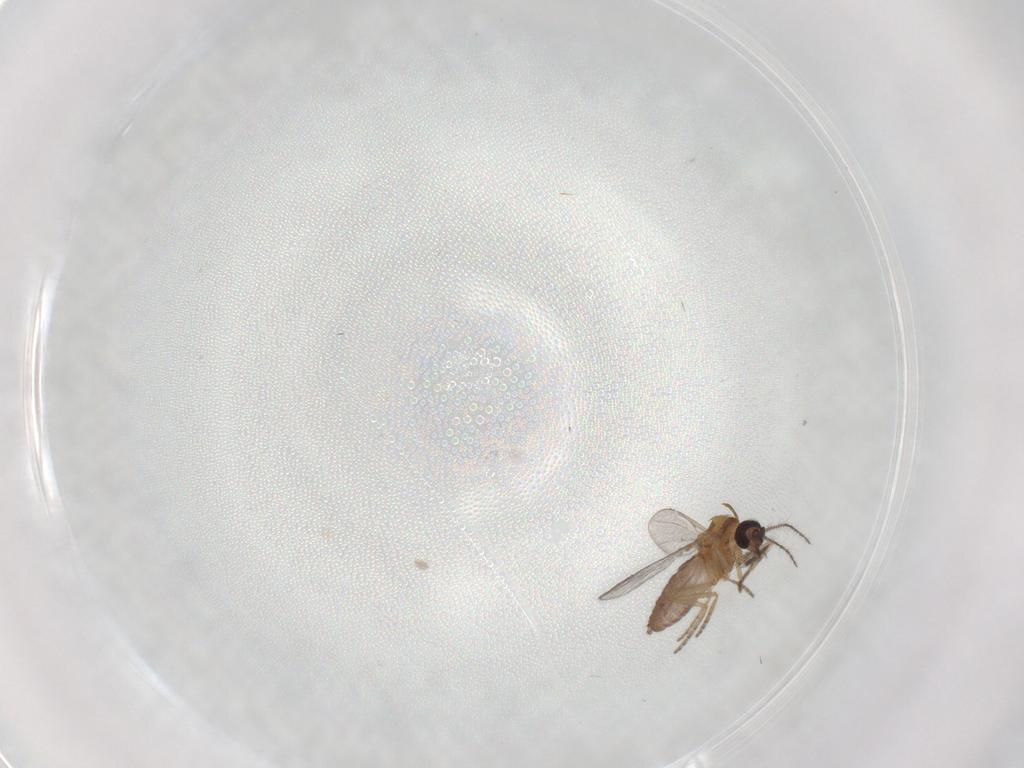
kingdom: Animalia
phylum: Arthropoda
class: Insecta
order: Diptera
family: Ceratopogonidae
